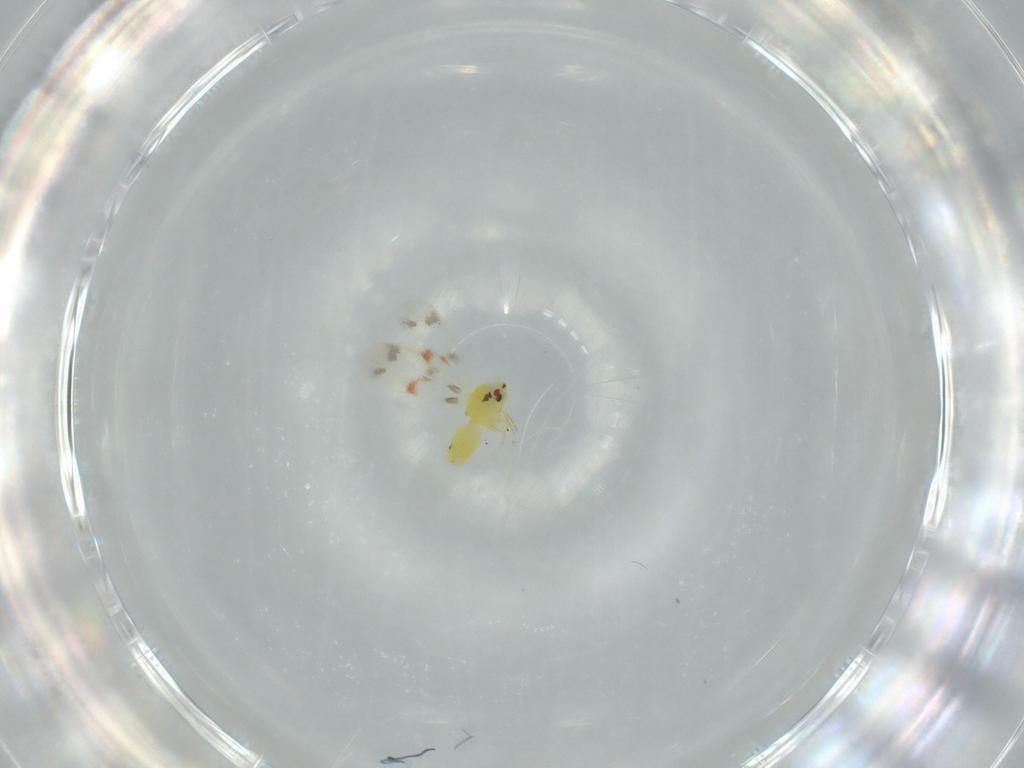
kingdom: Animalia
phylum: Arthropoda
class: Insecta
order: Hemiptera
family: Aleyrodidae
